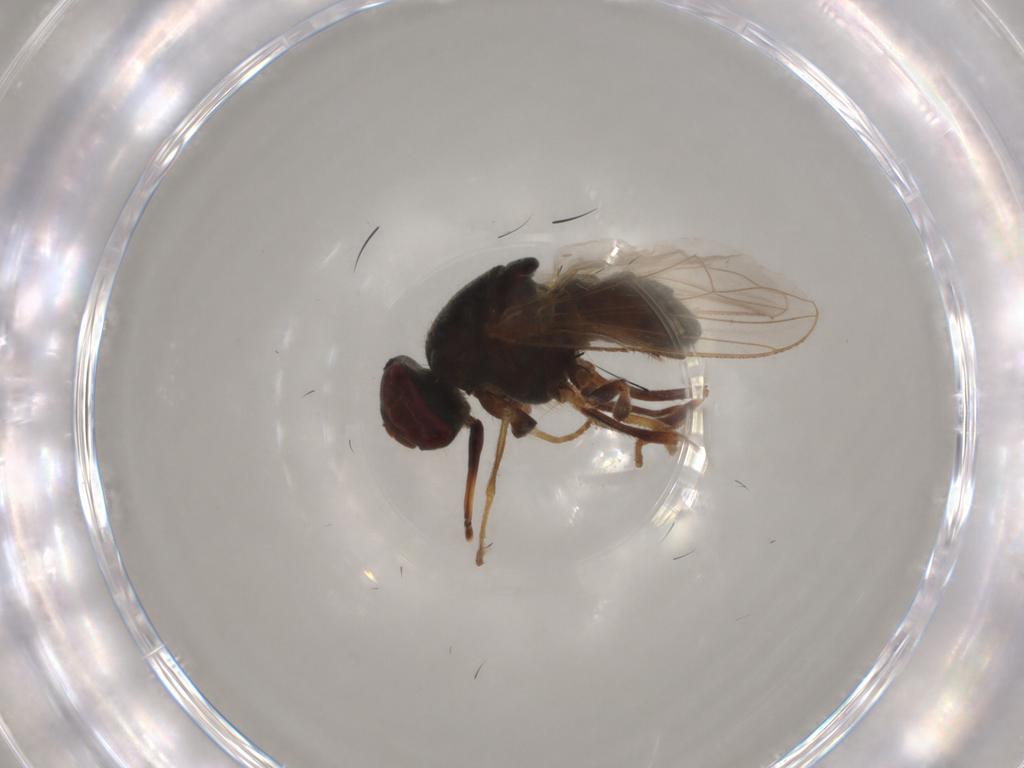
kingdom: Animalia
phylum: Arthropoda
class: Insecta
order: Diptera
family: Muscidae
